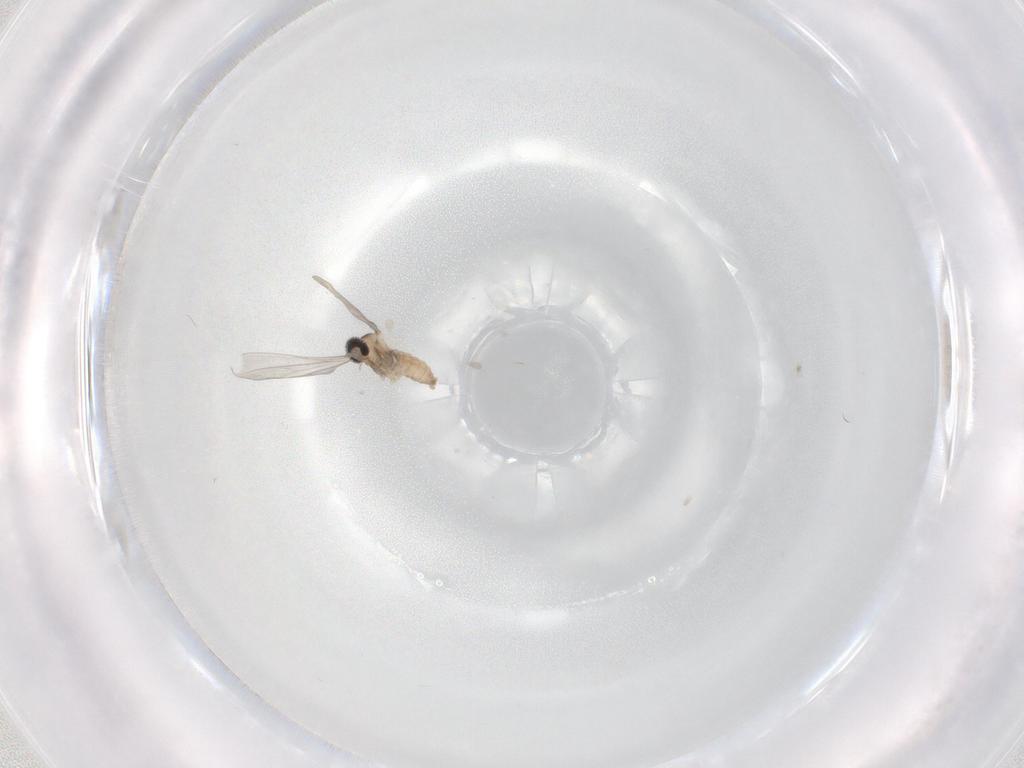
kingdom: Animalia
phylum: Arthropoda
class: Insecta
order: Diptera
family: Cecidomyiidae
